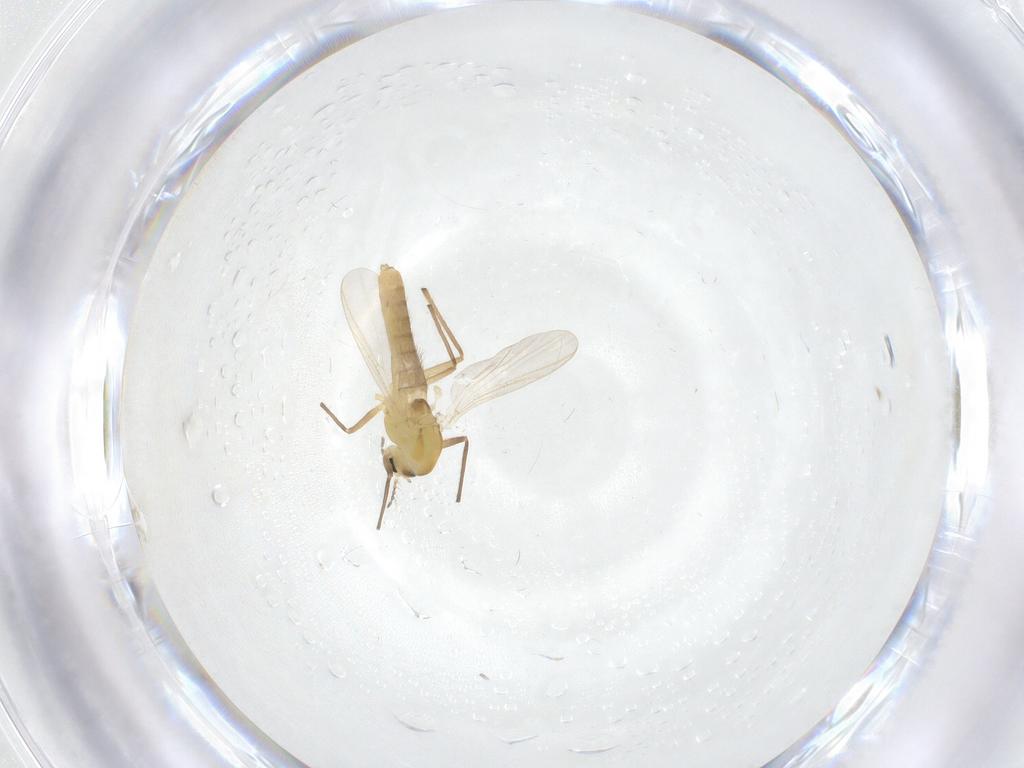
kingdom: Animalia
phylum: Arthropoda
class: Insecta
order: Diptera
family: Chironomidae
